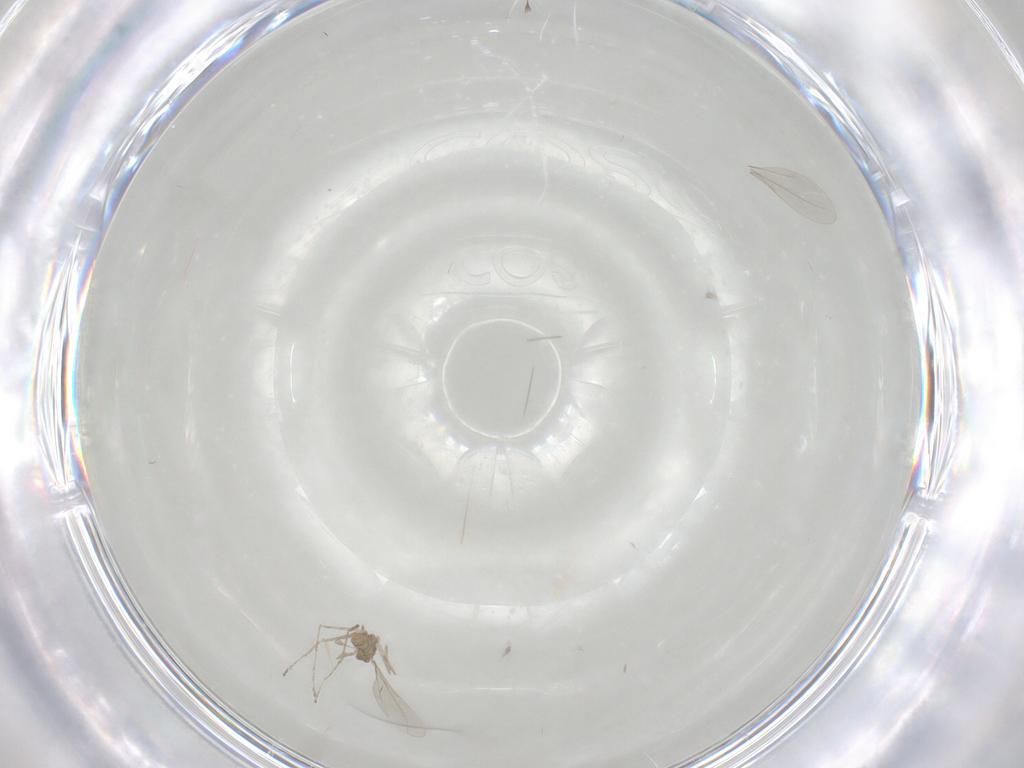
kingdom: Animalia
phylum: Arthropoda
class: Insecta
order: Diptera
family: Cecidomyiidae
